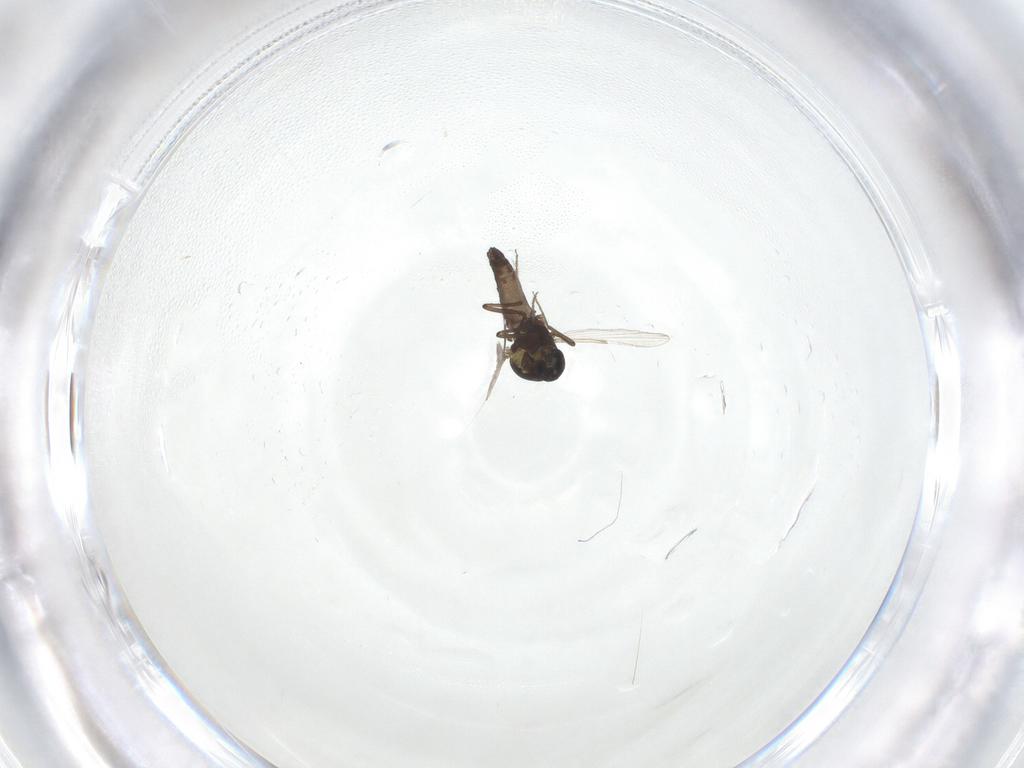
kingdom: Animalia
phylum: Arthropoda
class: Insecta
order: Diptera
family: Ceratopogonidae
